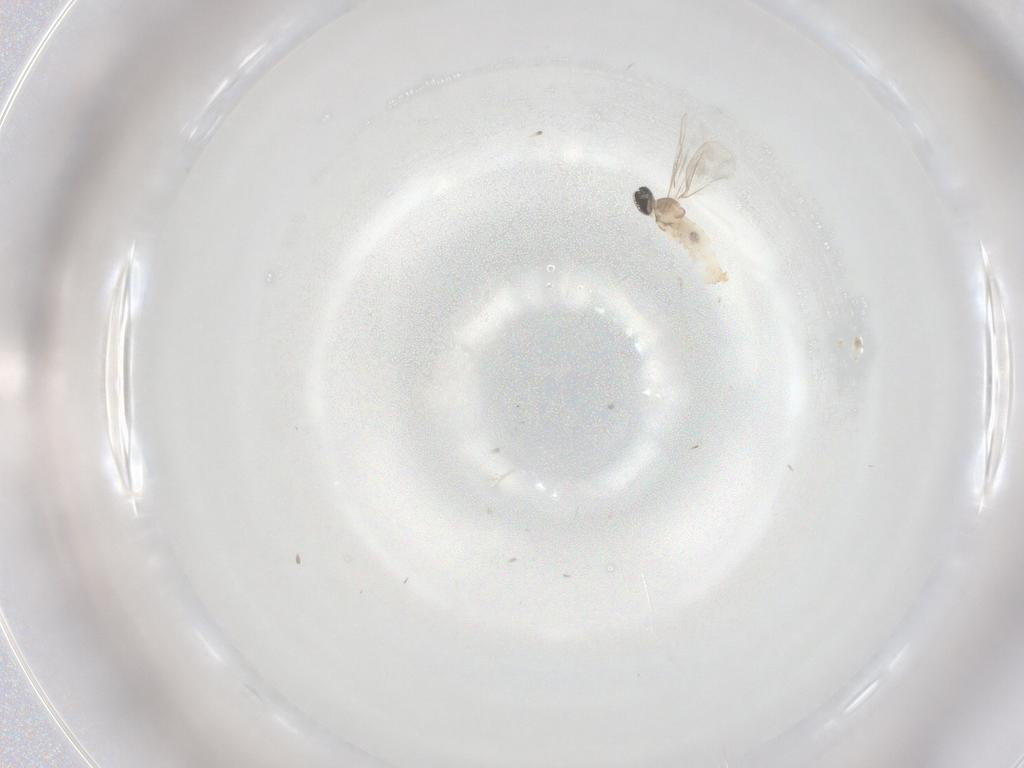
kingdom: Animalia
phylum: Arthropoda
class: Insecta
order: Diptera
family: Cecidomyiidae
